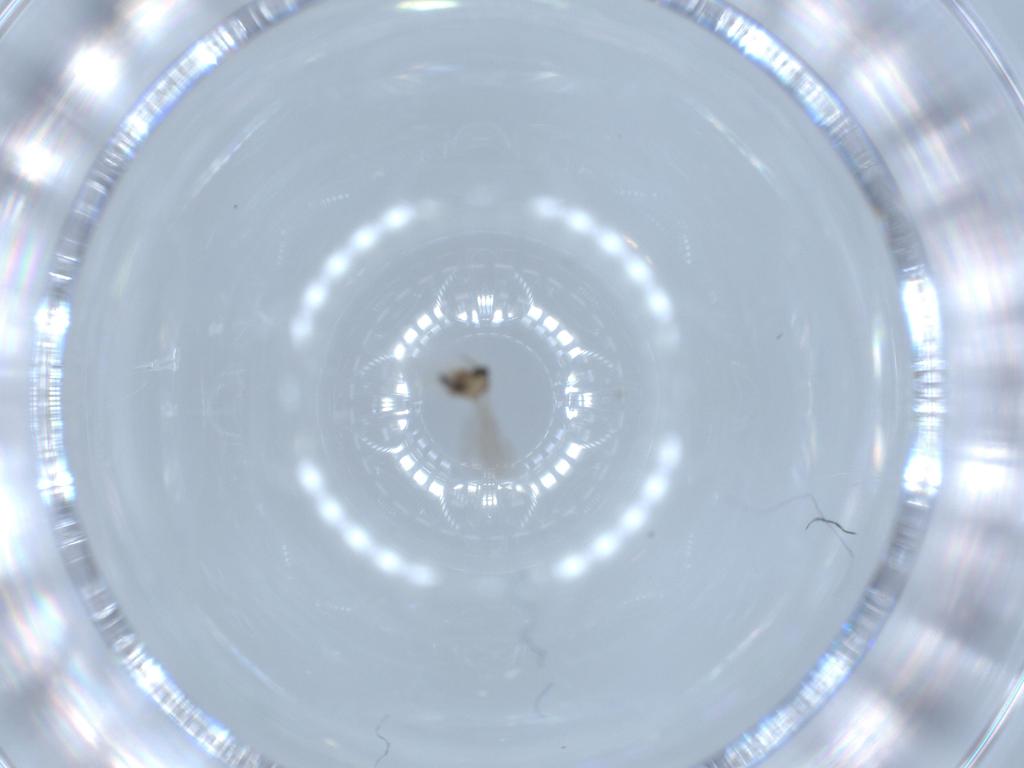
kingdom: Animalia
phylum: Arthropoda
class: Insecta
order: Diptera
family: Cecidomyiidae
